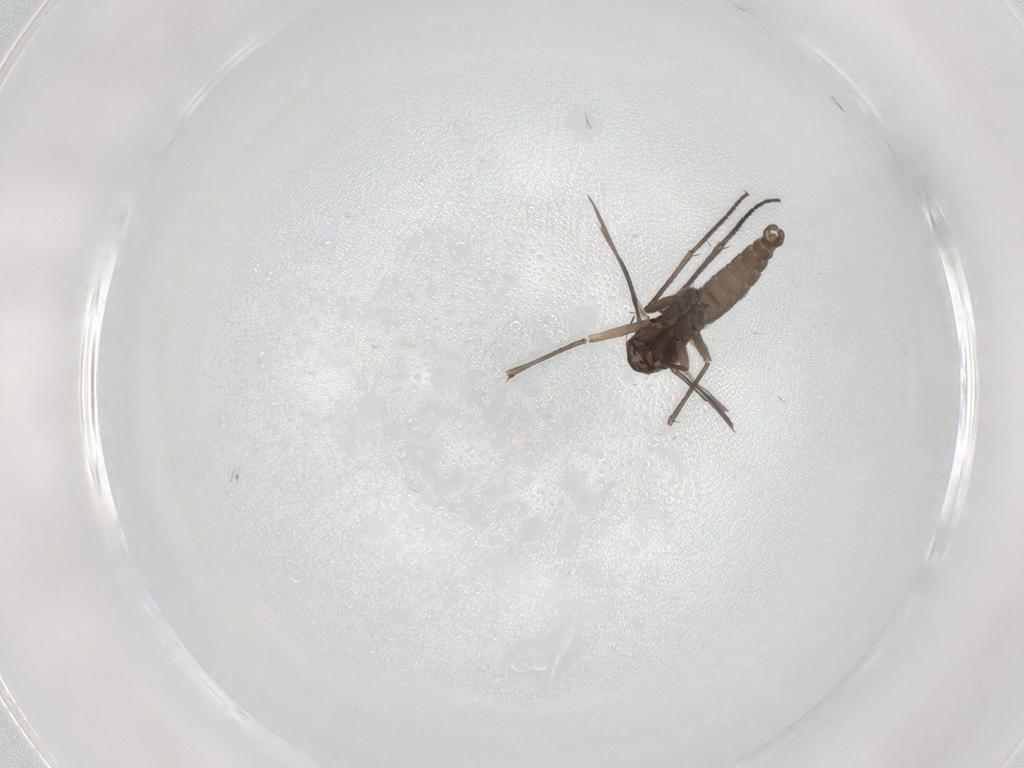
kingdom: Animalia
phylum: Arthropoda
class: Insecta
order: Diptera
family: Sciaridae
